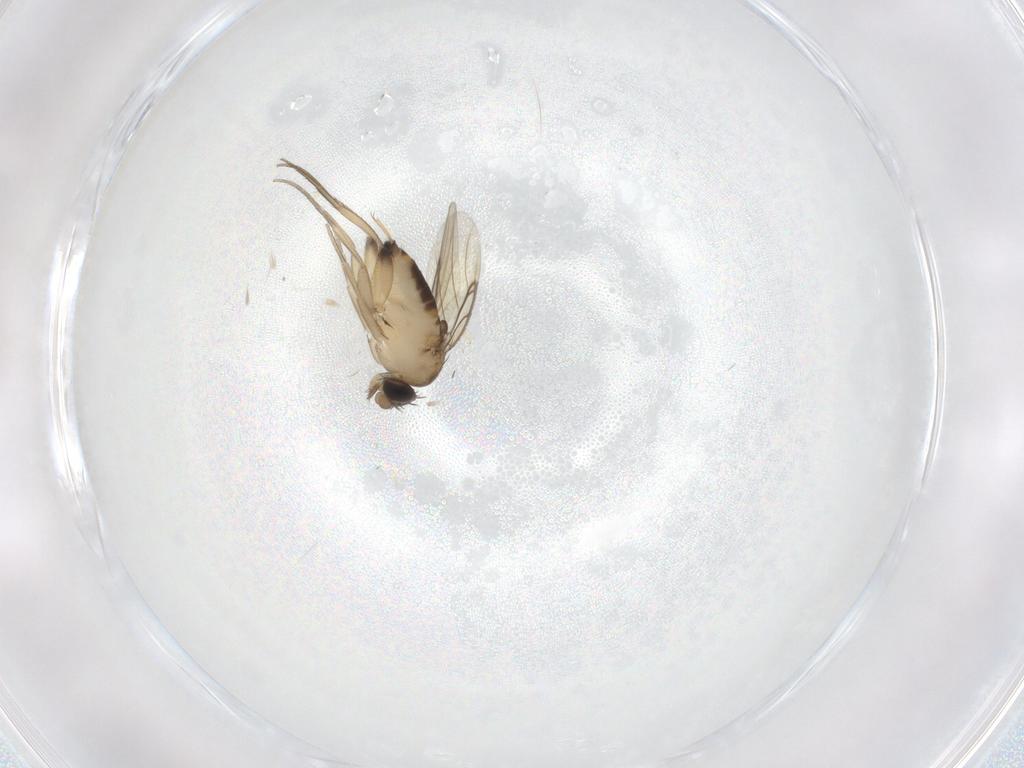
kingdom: Animalia
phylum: Arthropoda
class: Insecta
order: Diptera
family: Phoridae
